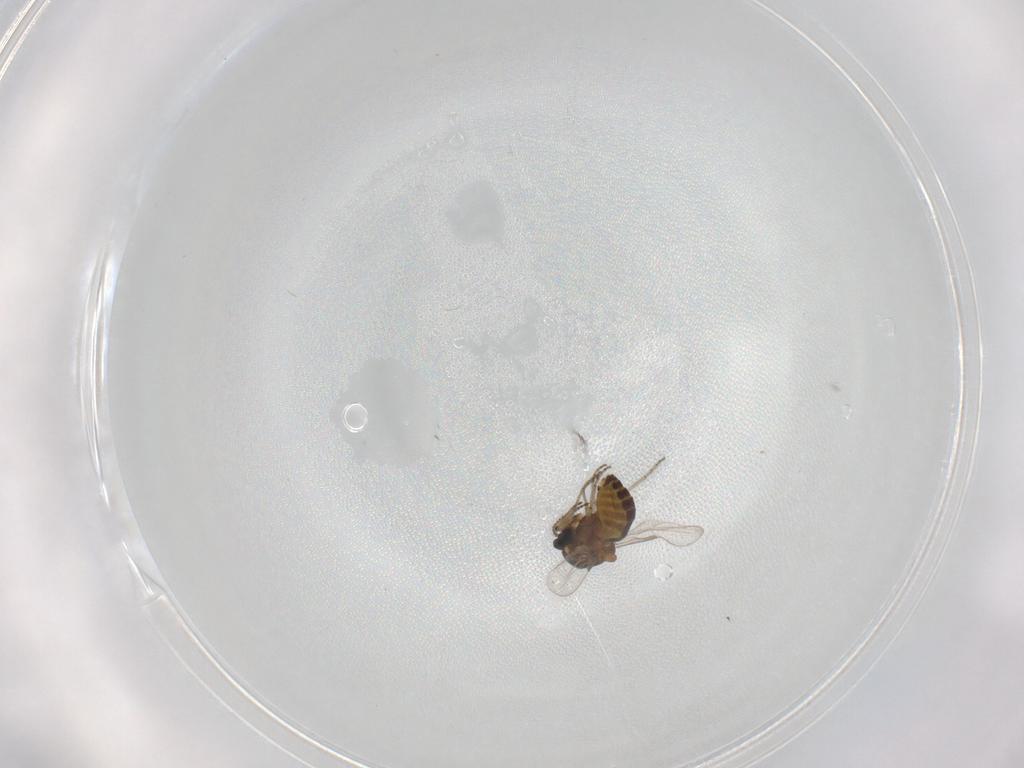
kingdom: Animalia
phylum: Arthropoda
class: Insecta
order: Diptera
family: Ceratopogonidae
